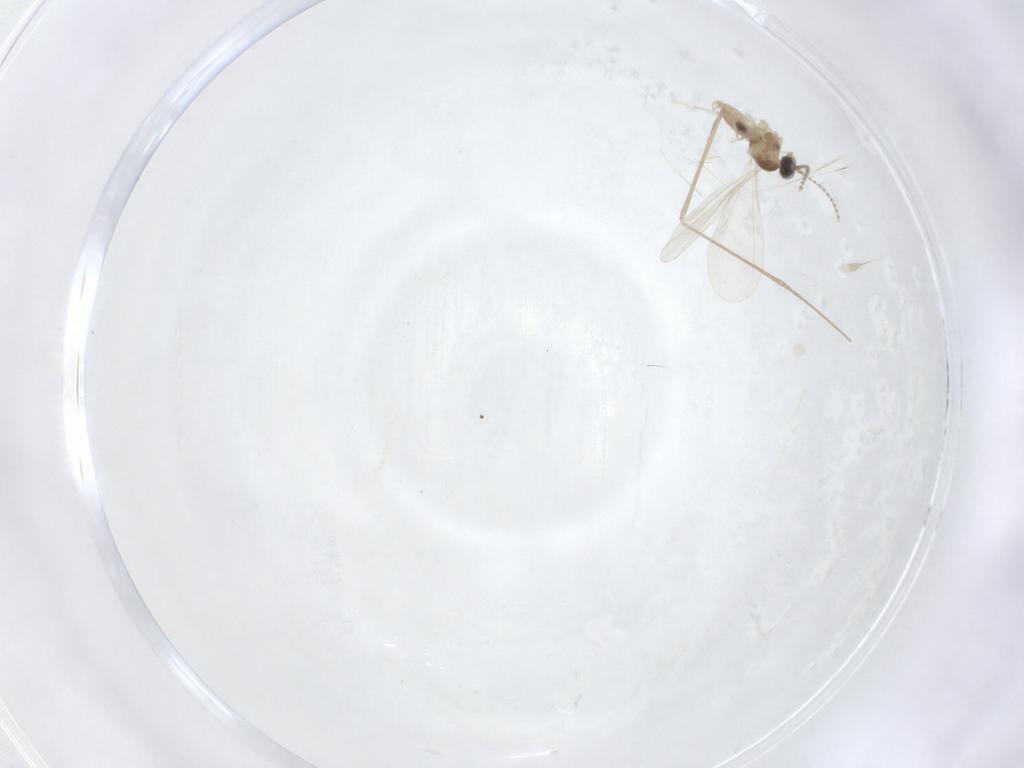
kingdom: Animalia
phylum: Arthropoda
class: Insecta
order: Diptera
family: Cecidomyiidae
